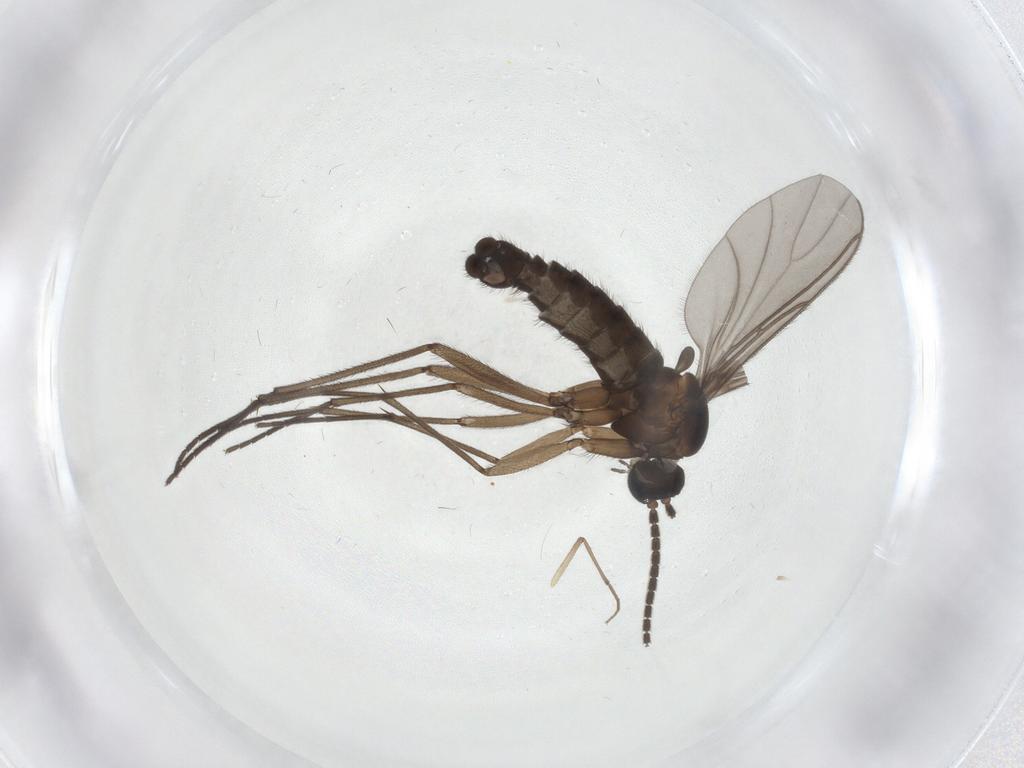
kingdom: Animalia
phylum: Arthropoda
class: Insecta
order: Diptera
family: Sciaridae
